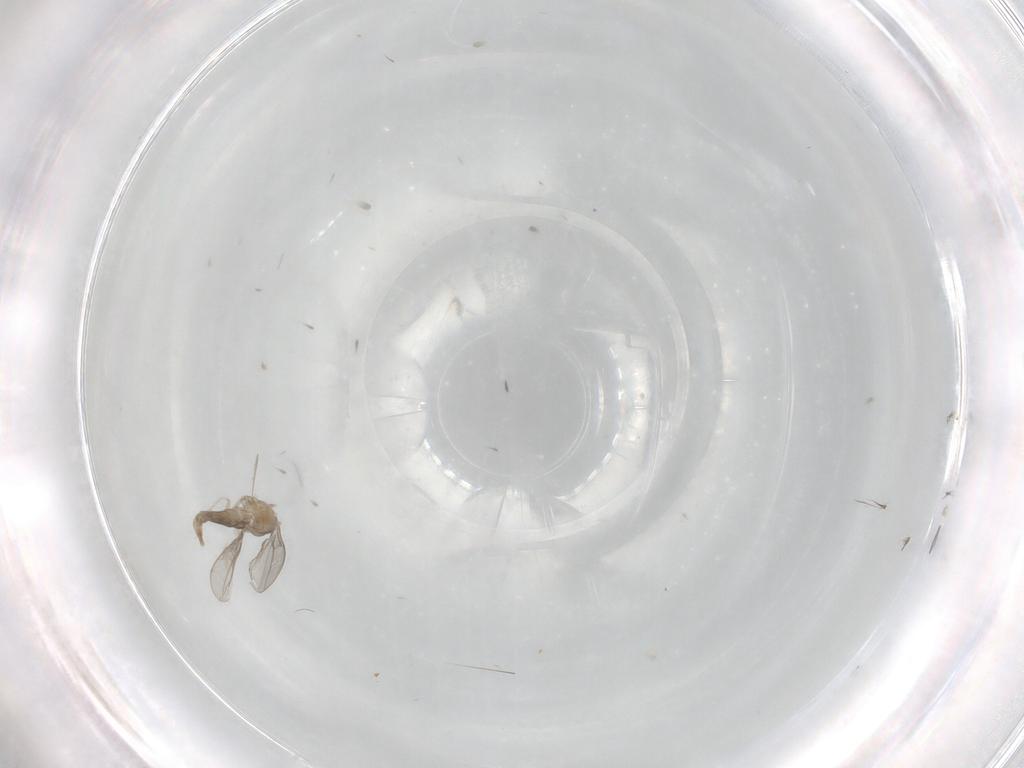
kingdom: Animalia
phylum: Arthropoda
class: Insecta
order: Diptera
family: Ceratopogonidae
